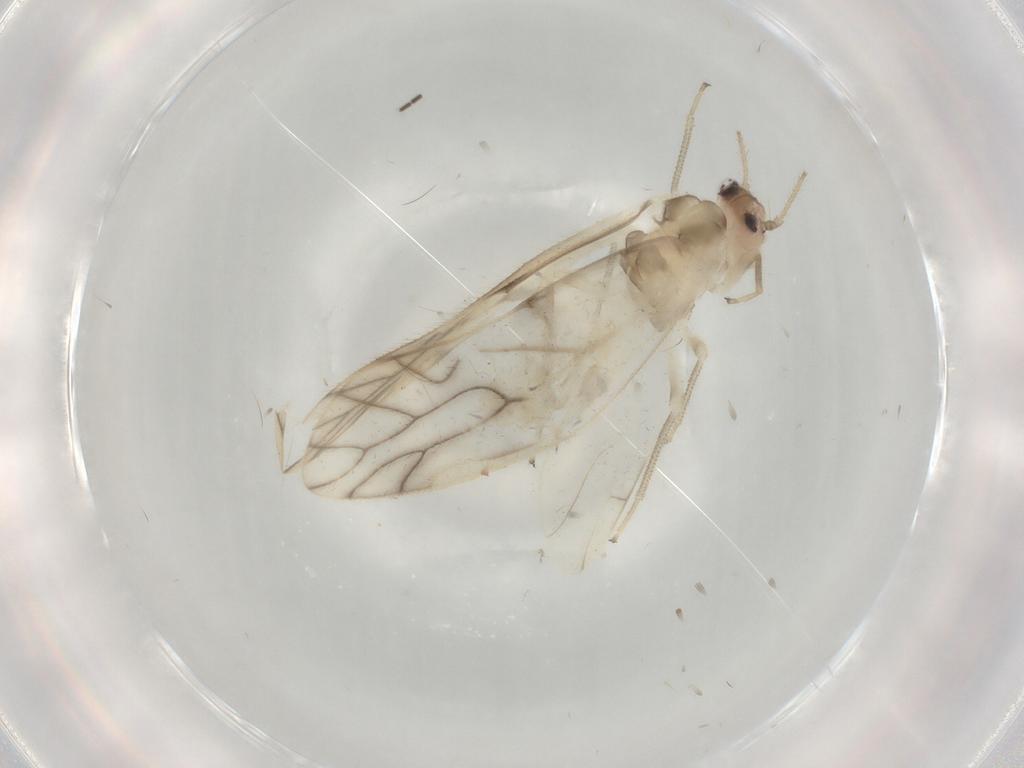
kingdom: Animalia
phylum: Arthropoda
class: Insecta
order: Psocodea
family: Caeciliusidae
